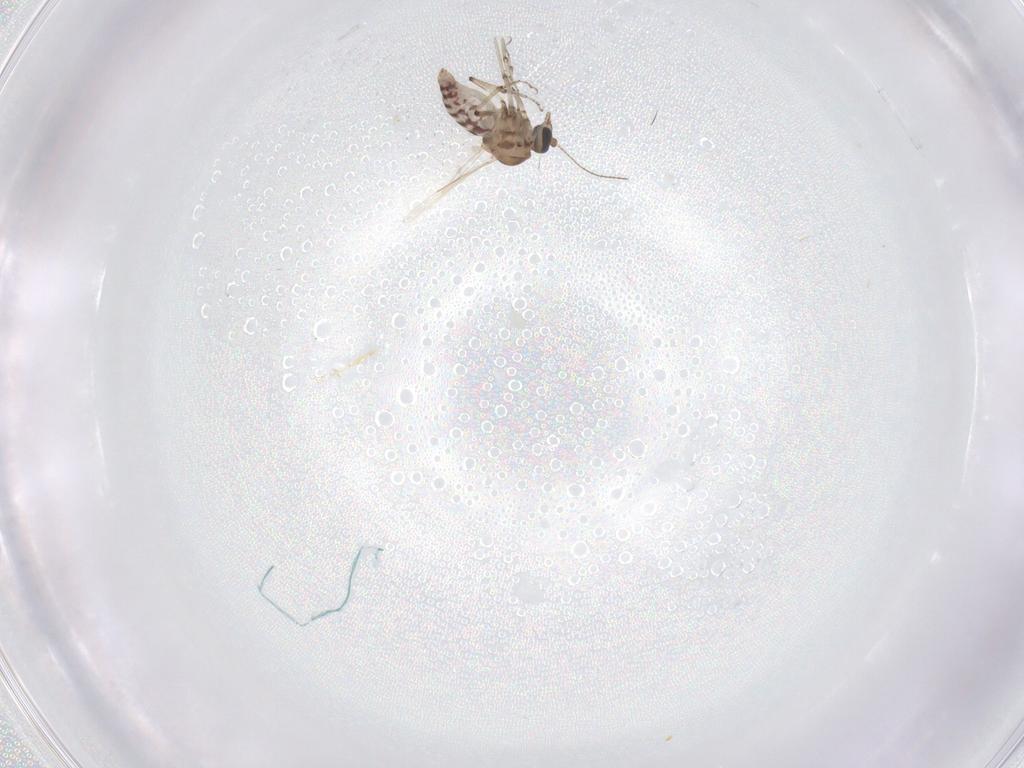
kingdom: Animalia
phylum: Arthropoda
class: Insecta
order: Diptera
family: Ceratopogonidae
